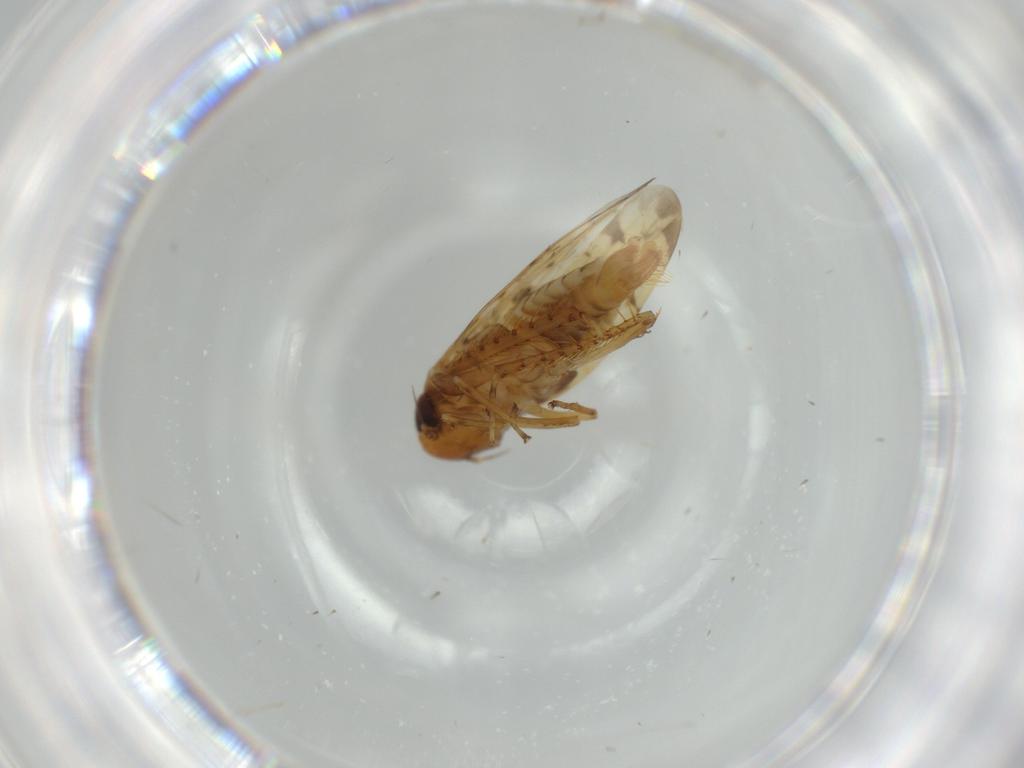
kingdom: Animalia
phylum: Arthropoda
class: Insecta
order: Hemiptera
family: Cicadellidae
